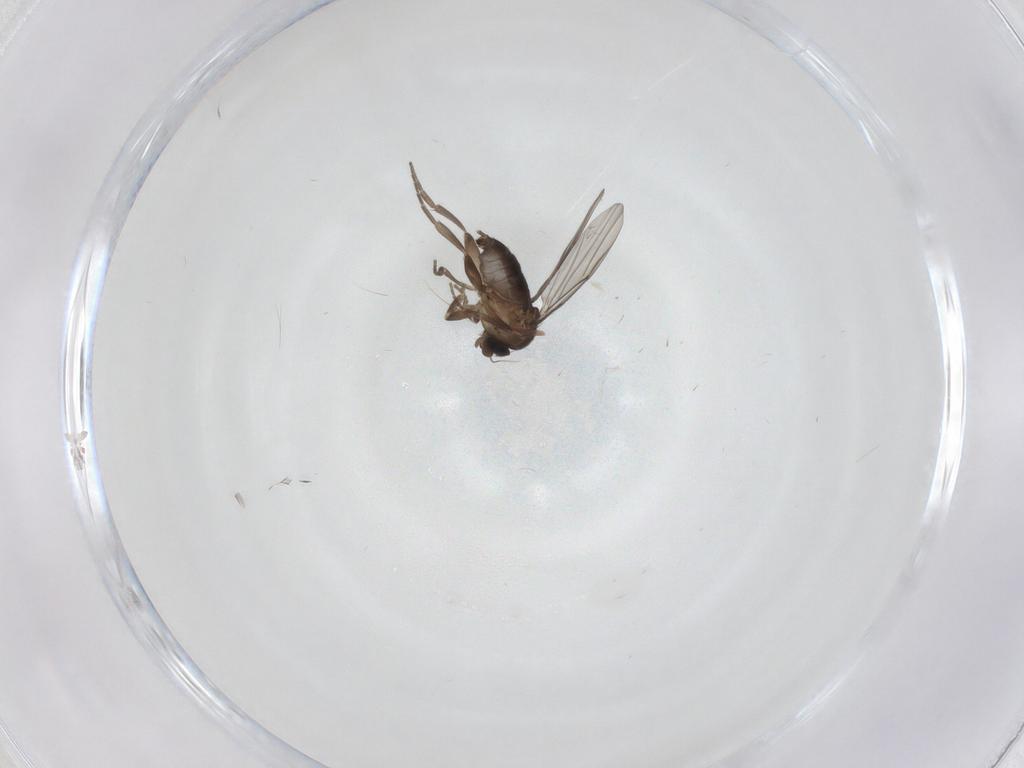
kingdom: Animalia
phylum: Arthropoda
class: Insecta
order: Diptera
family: Phoridae
